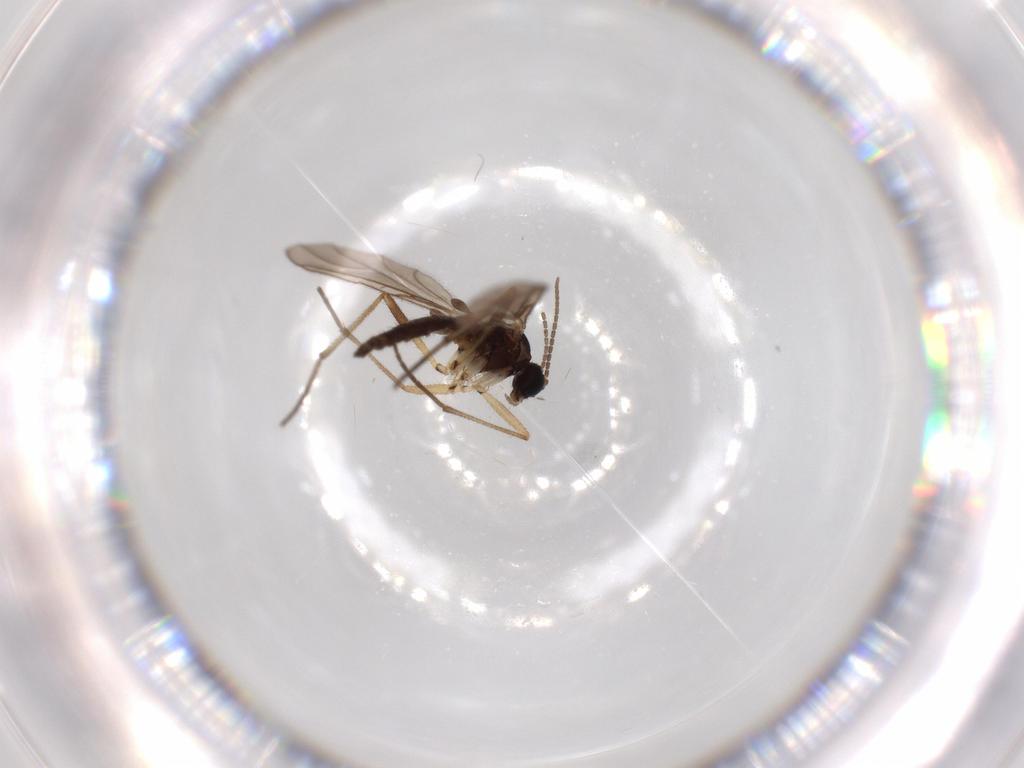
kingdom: Animalia
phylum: Arthropoda
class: Insecta
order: Diptera
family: Sciaridae
